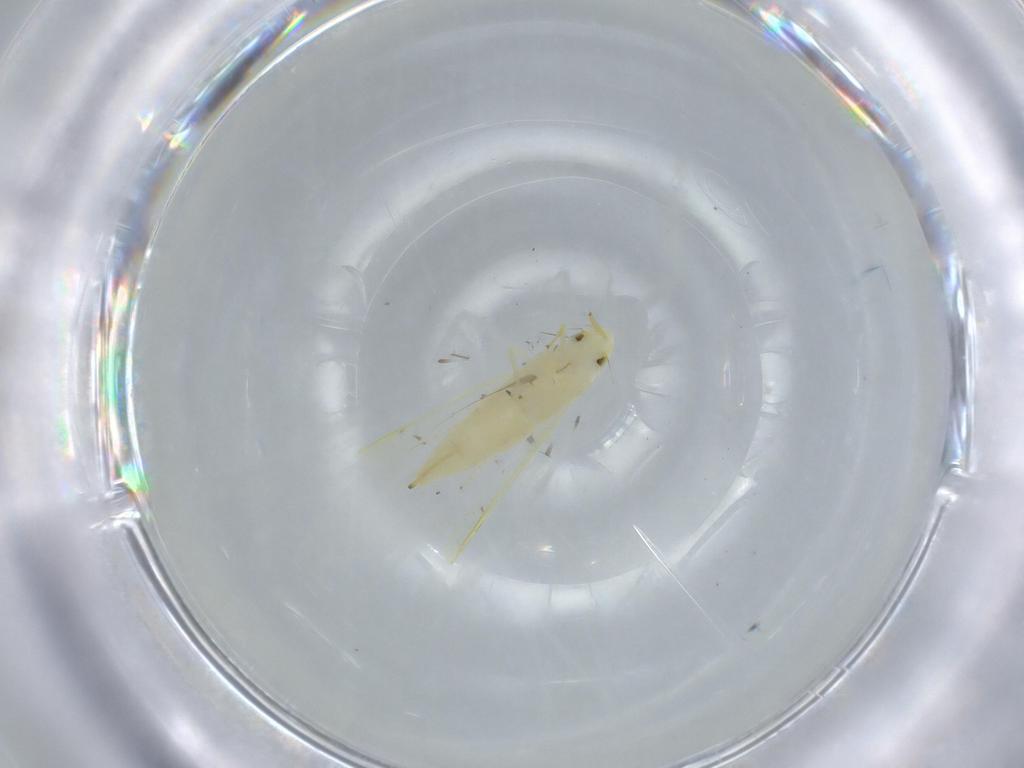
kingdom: Animalia
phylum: Arthropoda
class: Insecta
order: Hemiptera
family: Cicadellidae
